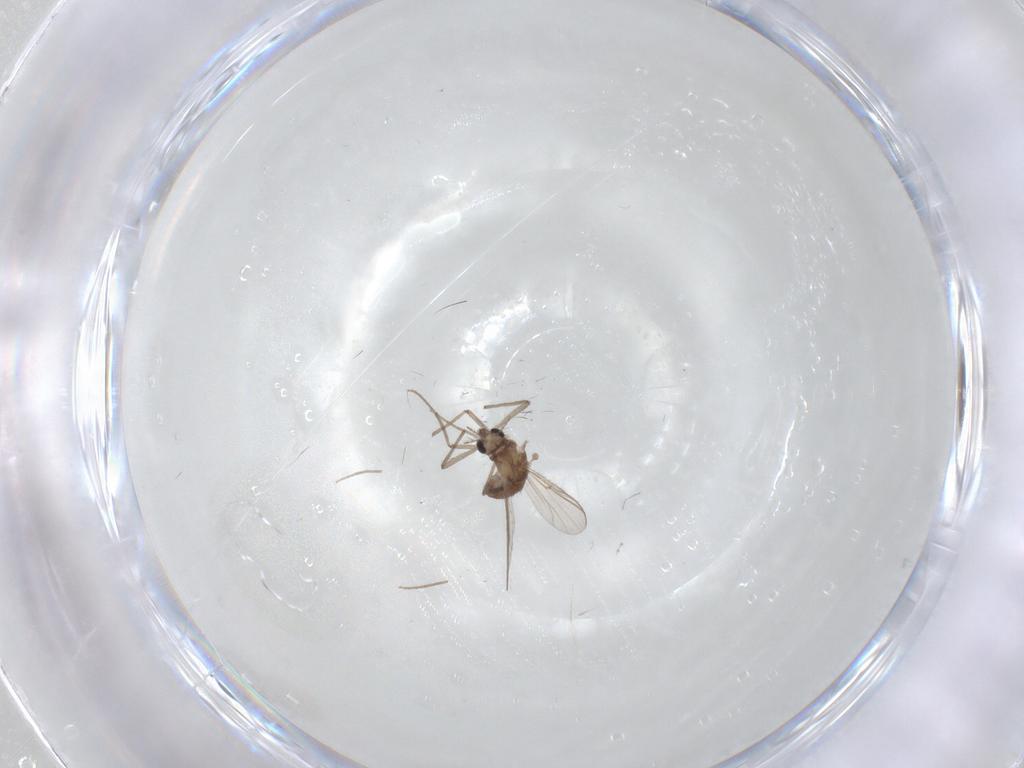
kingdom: Animalia
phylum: Arthropoda
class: Insecta
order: Diptera
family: Chironomidae
